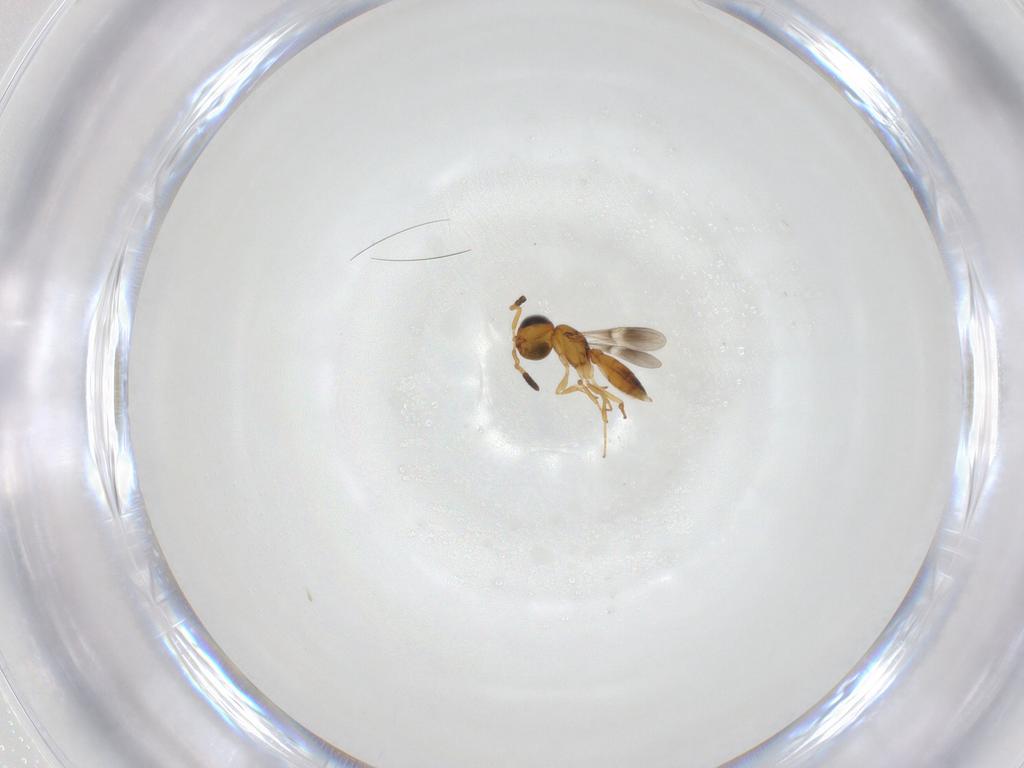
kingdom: Animalia
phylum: Arthropoda
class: Insecta
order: Hymenoptera
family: Scelionidae
